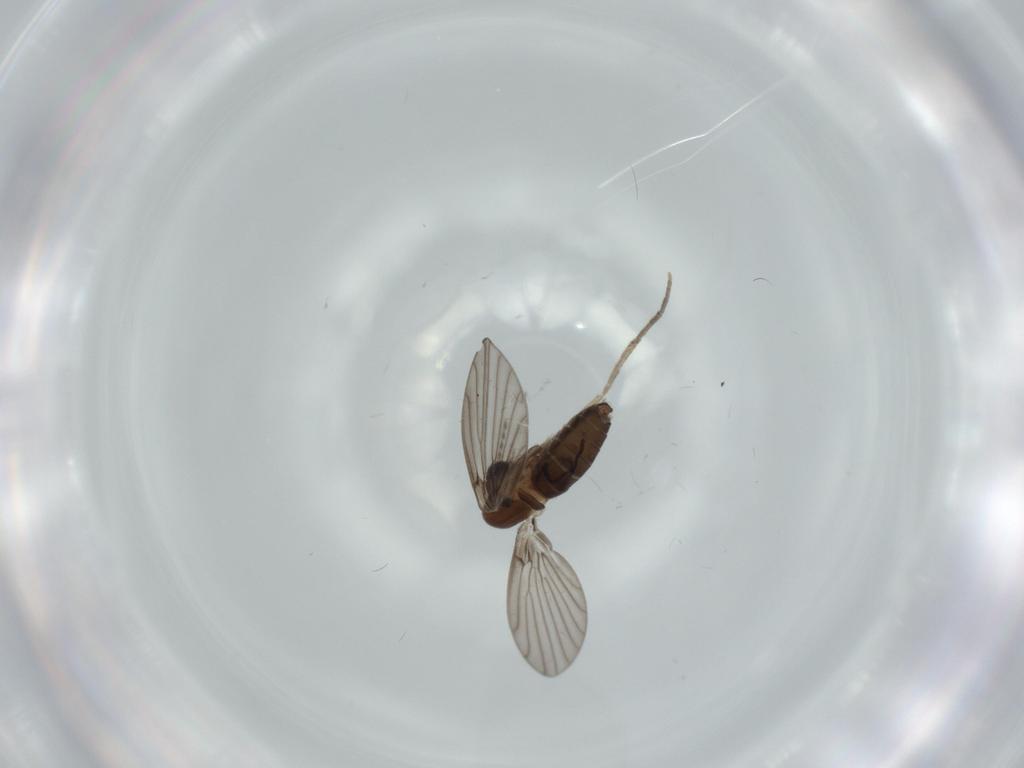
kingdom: Animalia
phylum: Arthropoda
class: Insecta
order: Diptera
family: Psychodidae
